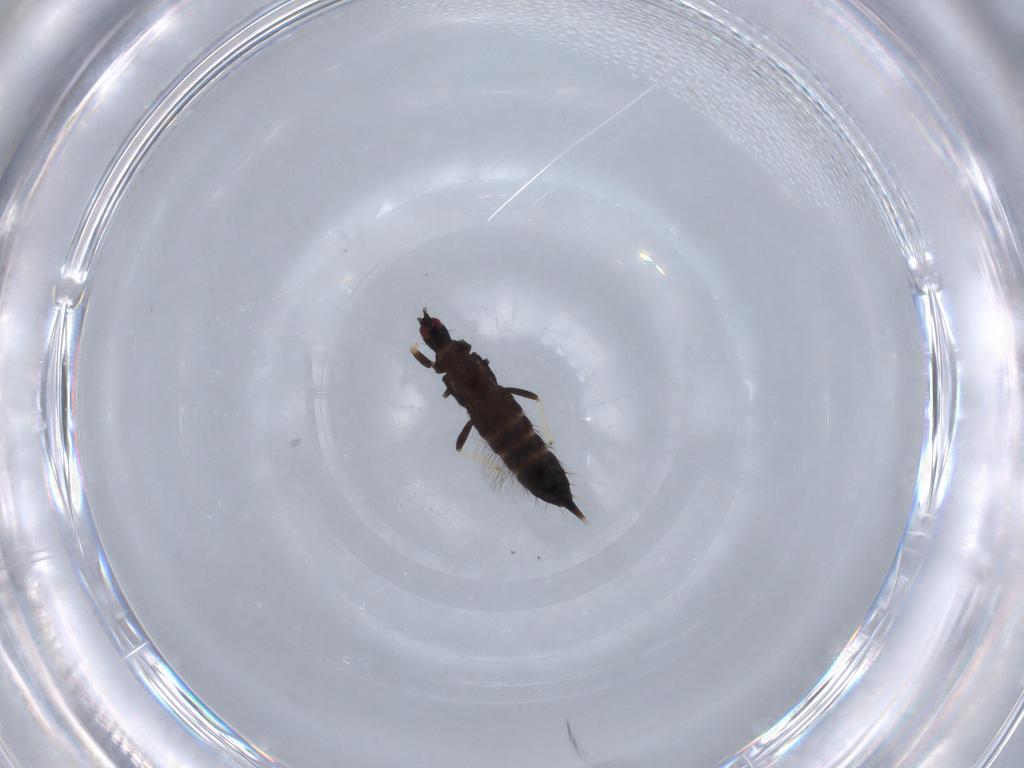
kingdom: Animalia
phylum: Arthropoda
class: Insecta
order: Thysanoptera
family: Phlaeothripidae
